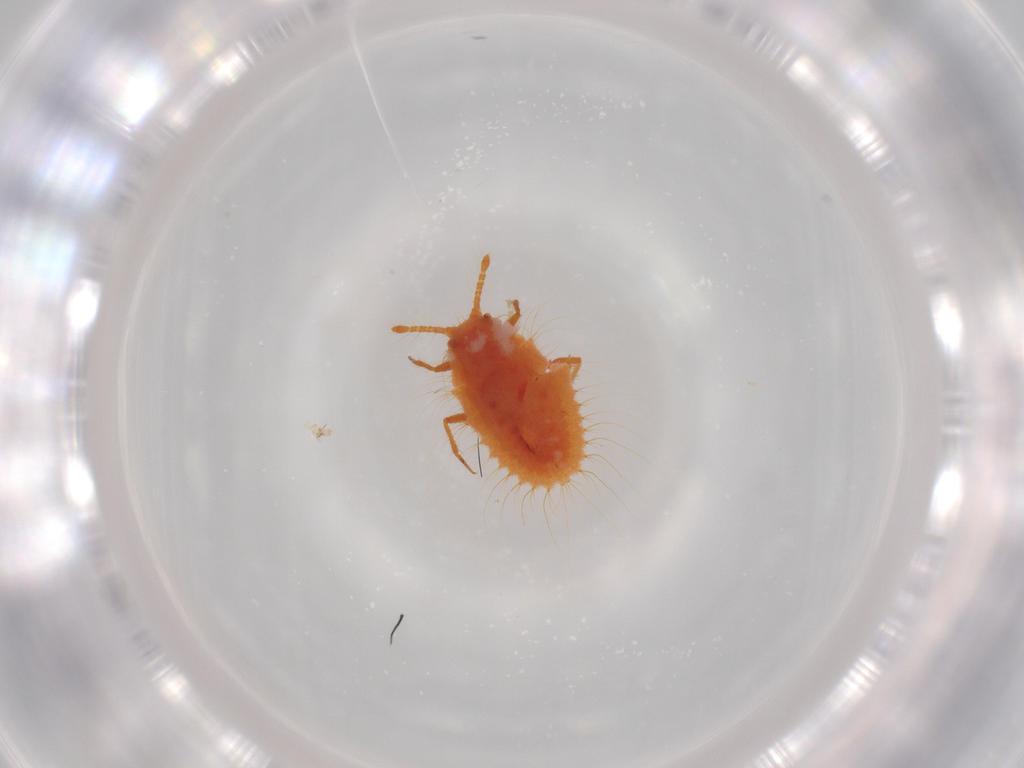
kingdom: Animalia
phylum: Arthropoda
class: Insecta
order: Hemiptera
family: Coccoidea_incertae_sedis
